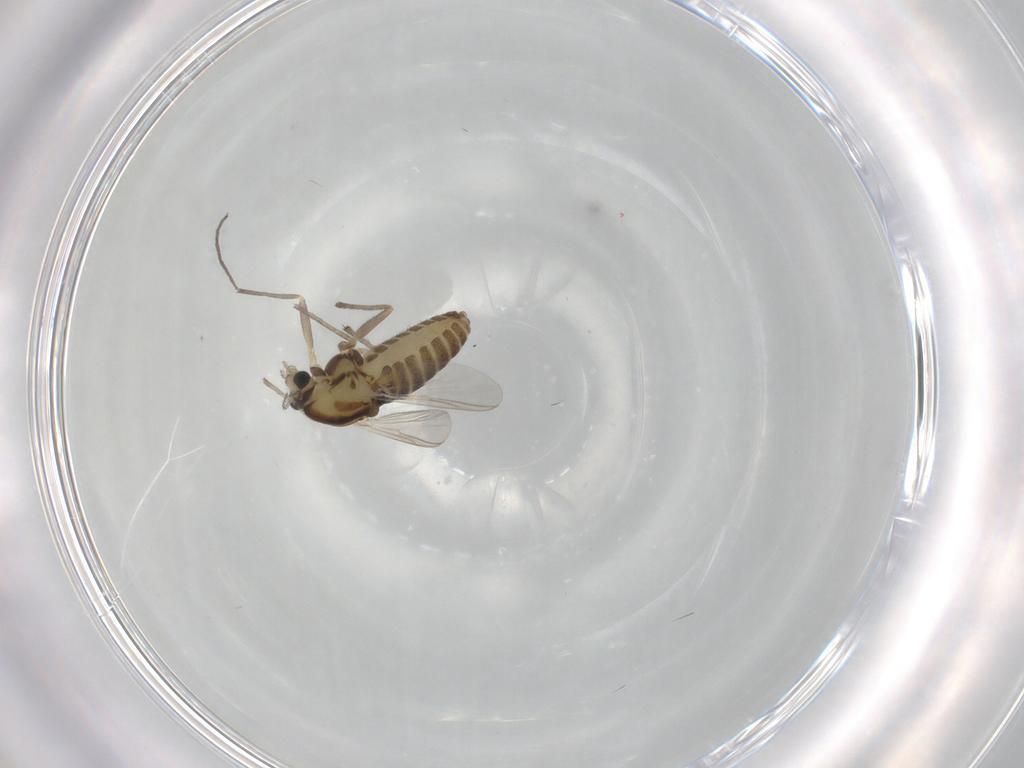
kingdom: Animalia
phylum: Arthropoda
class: Insecta
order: Diptera
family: Chironomidae
